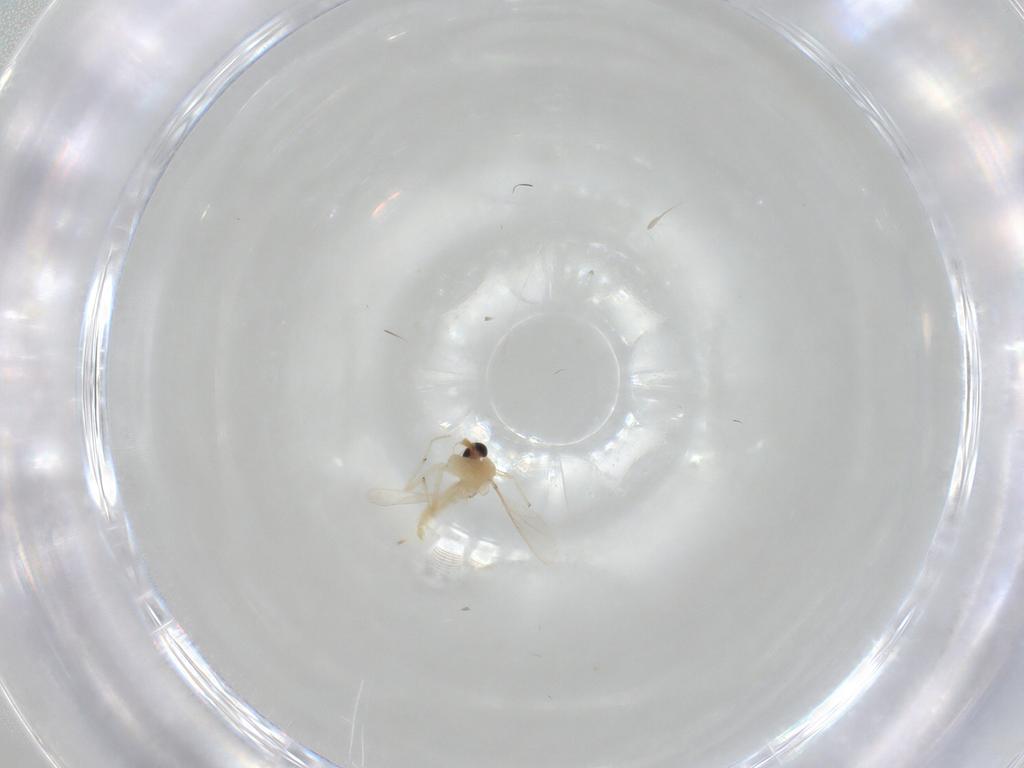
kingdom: Animalia
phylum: Arthropoda
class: Insecta
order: Diptera
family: Chironomidae
